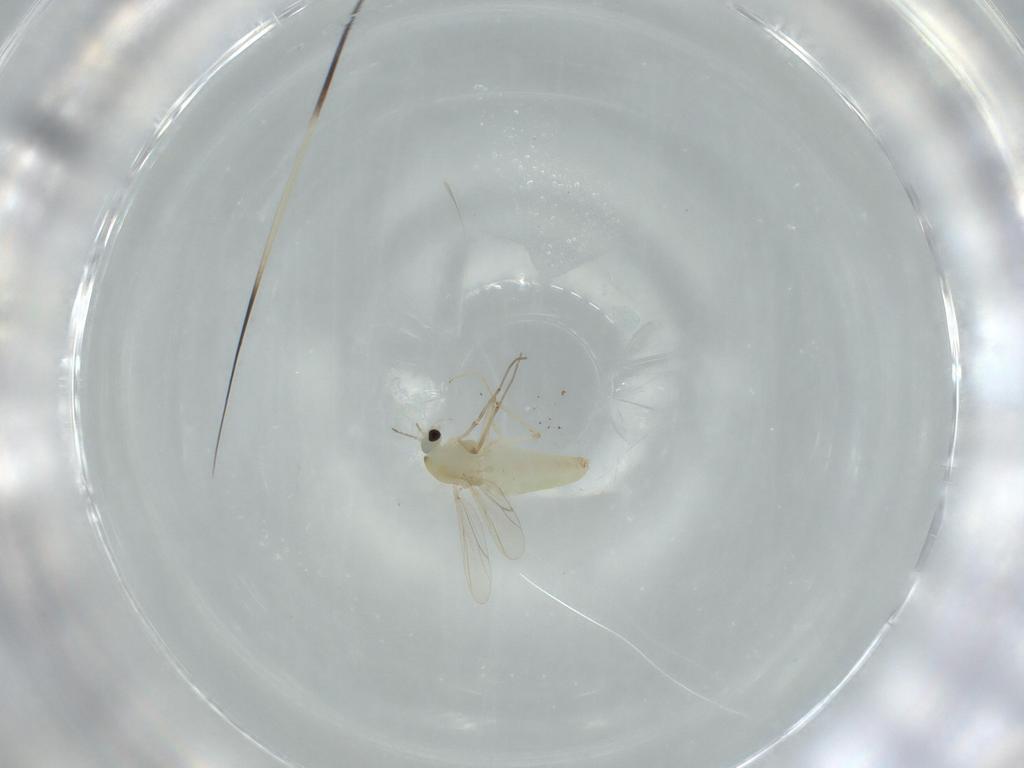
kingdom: Animalia
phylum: Arthropoda
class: Insecta
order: Diptera
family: Chironomidae
